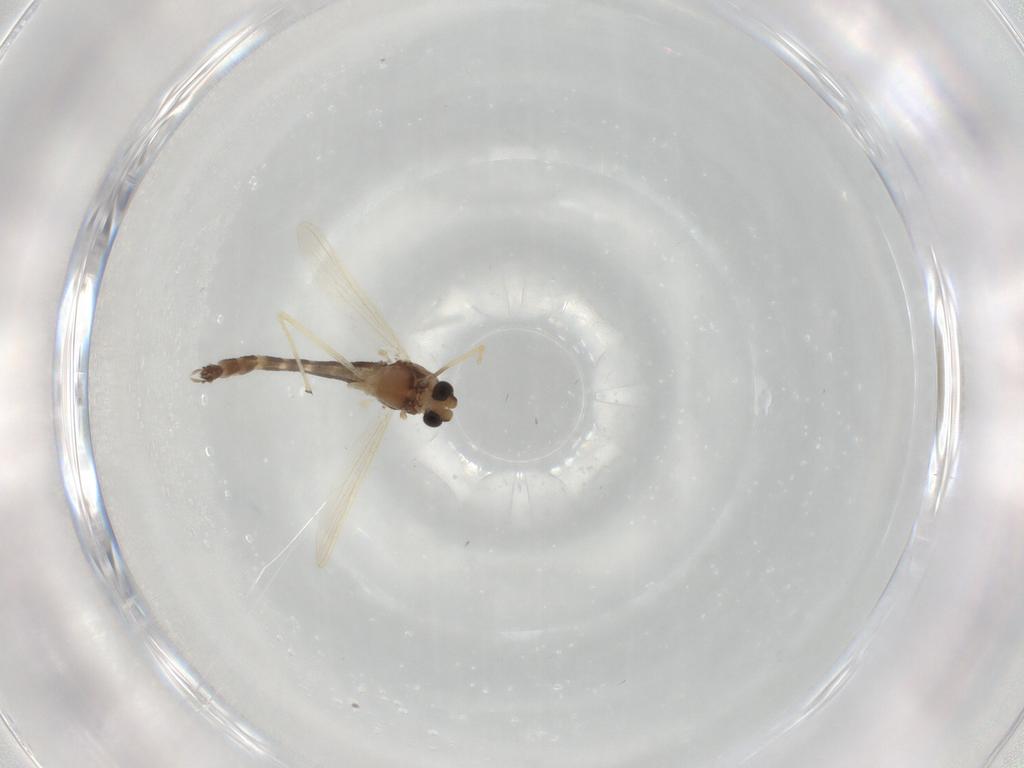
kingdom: Animalia
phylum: Arthropoda
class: Insecta
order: Diptera
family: Chironomidae
